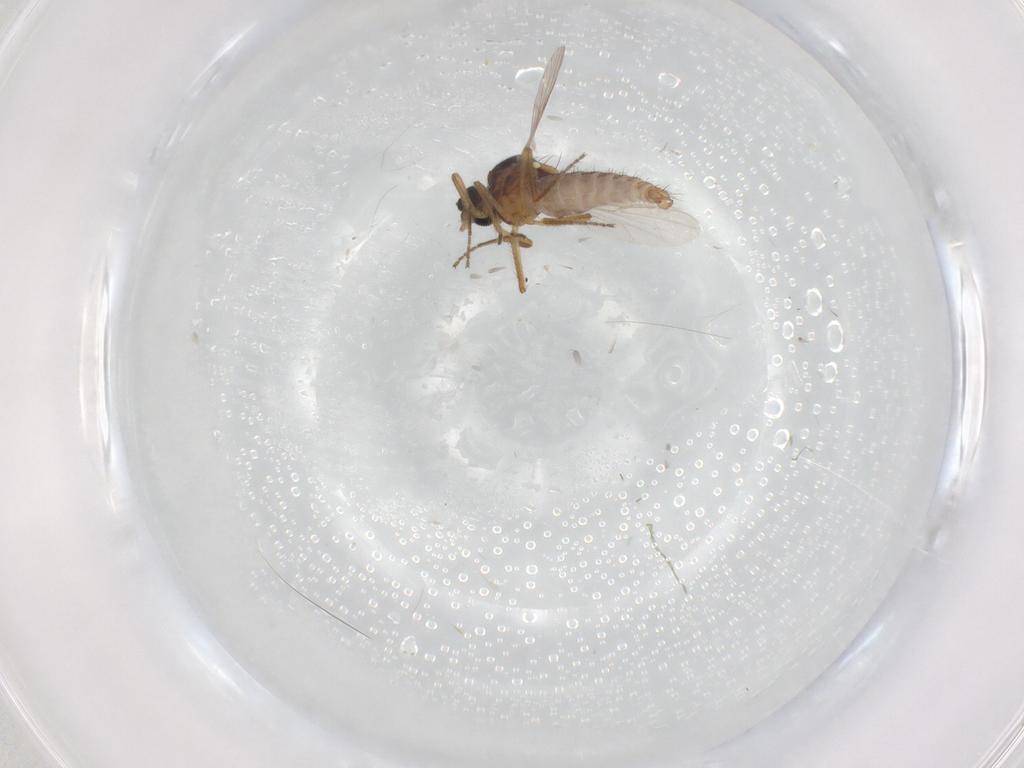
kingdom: Animalia
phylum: Arthropoda
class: Insecta
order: Diptera
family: Ceratopogonidae
